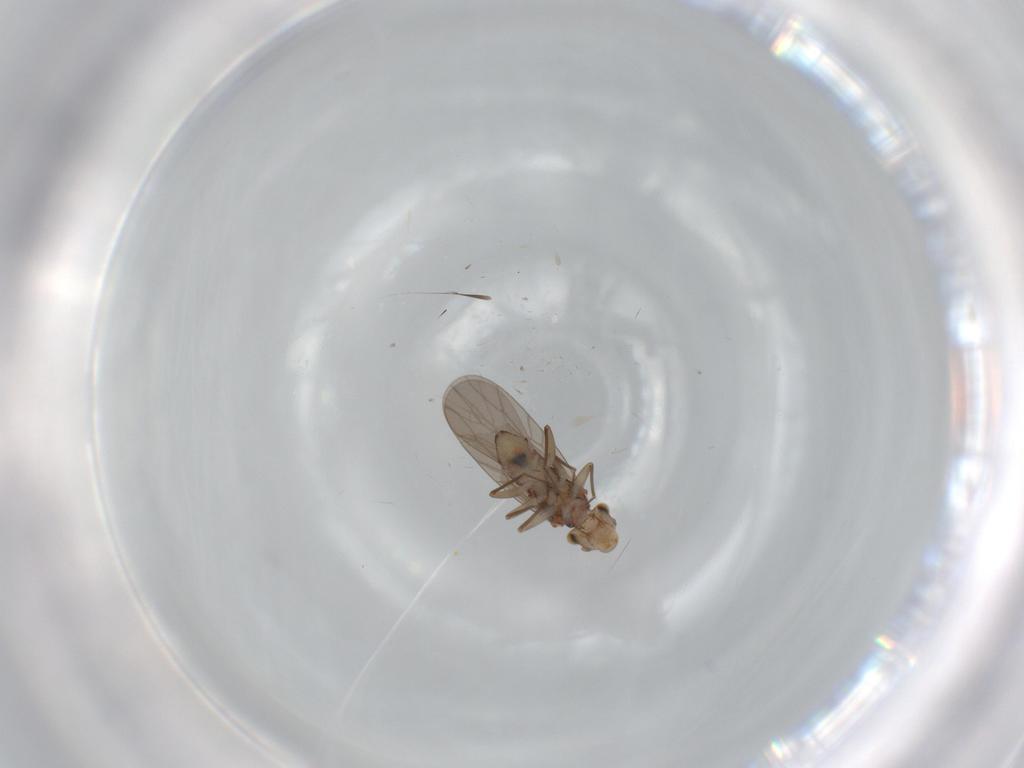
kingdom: Animalia
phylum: Arthropoda
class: Insecta
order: Psocodea
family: Lepidopsocidae
